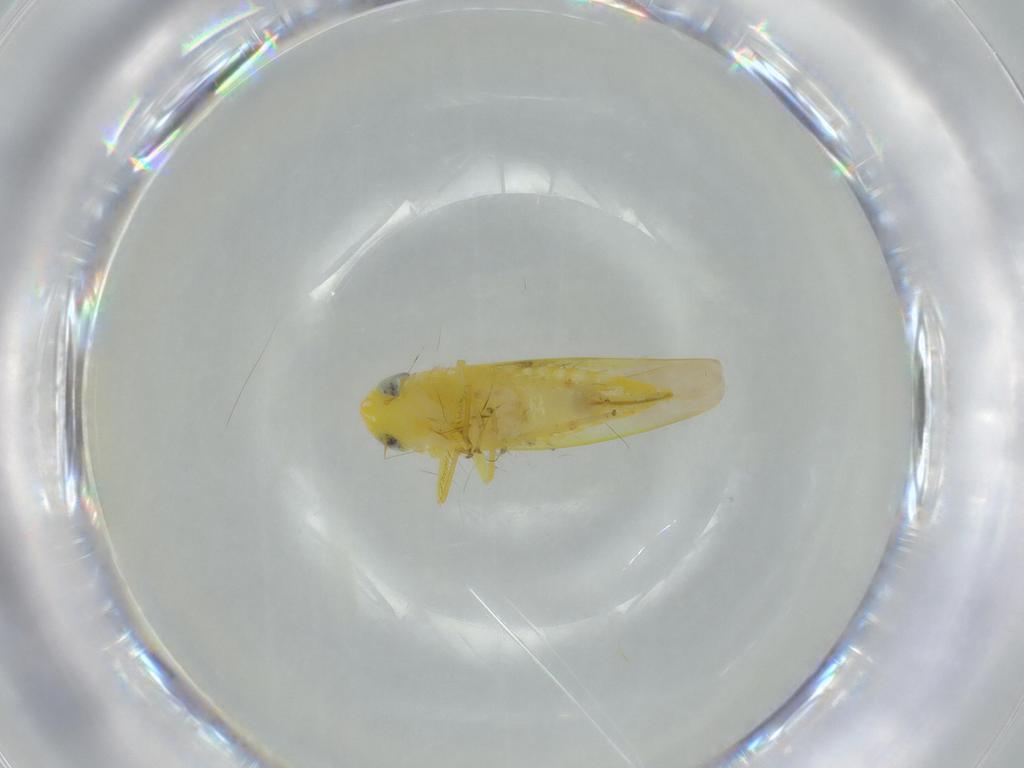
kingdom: Animalia
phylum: Arthropoda
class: Insecta
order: Hemiptera
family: Cicadellidae
